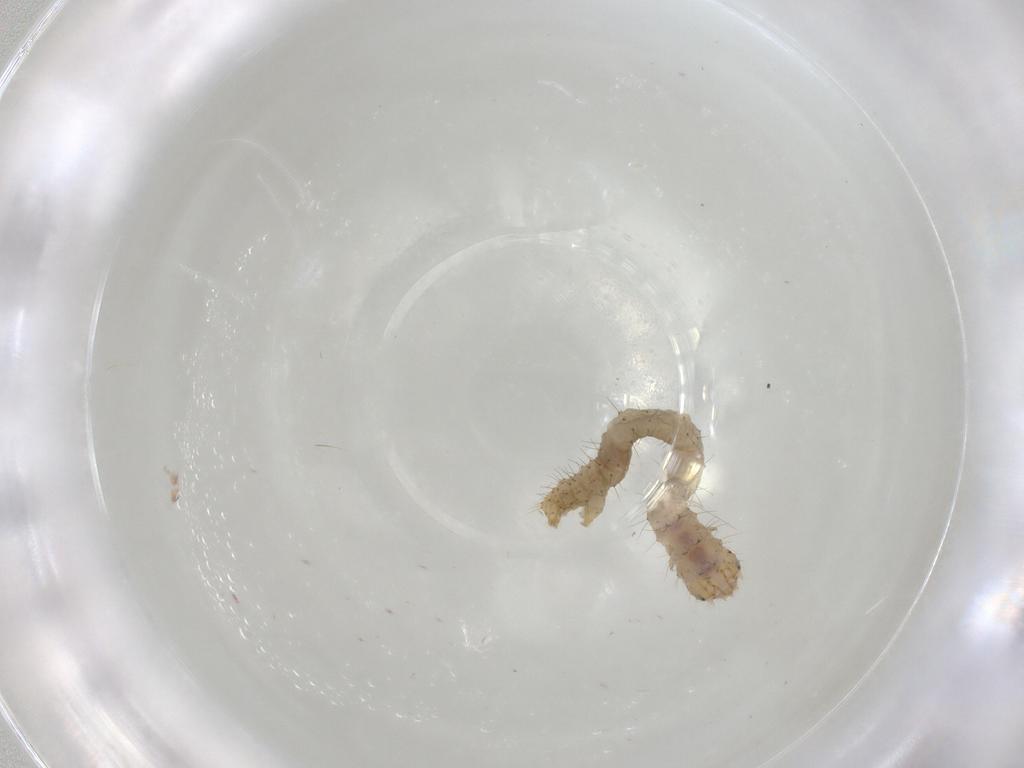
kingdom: Animalia
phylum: Arthropoda
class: Insecta
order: Lepidoptera
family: Geometridae
